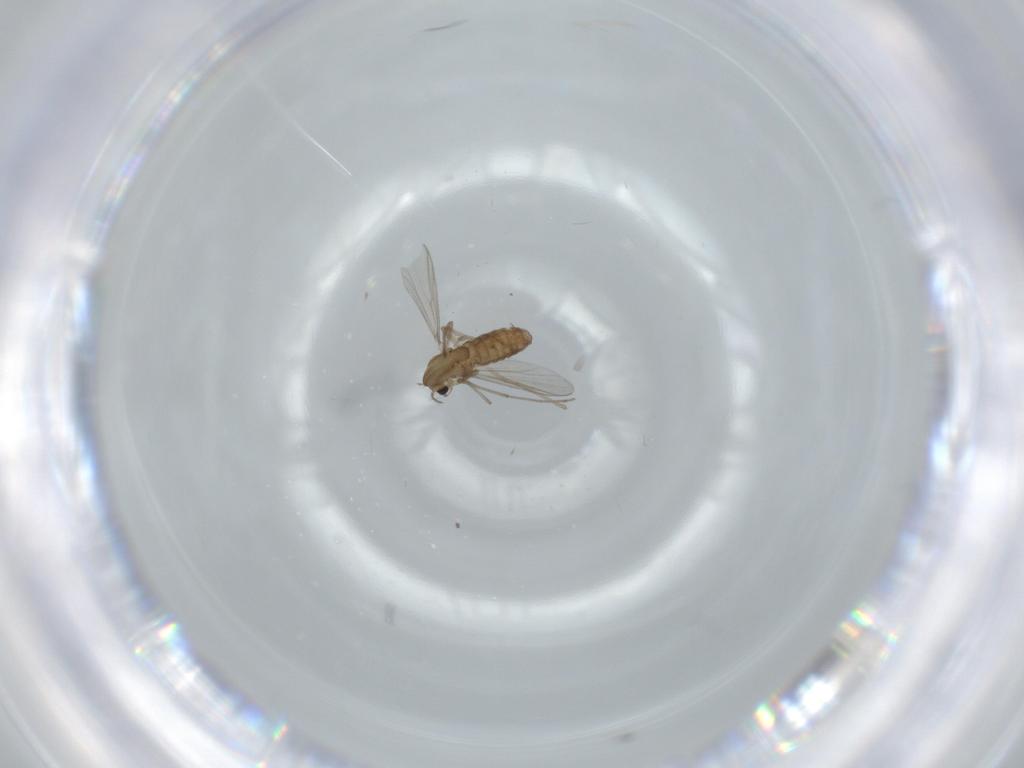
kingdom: Animalia
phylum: Arthropoda
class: Insecta
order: Diptera
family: Chironomidae
